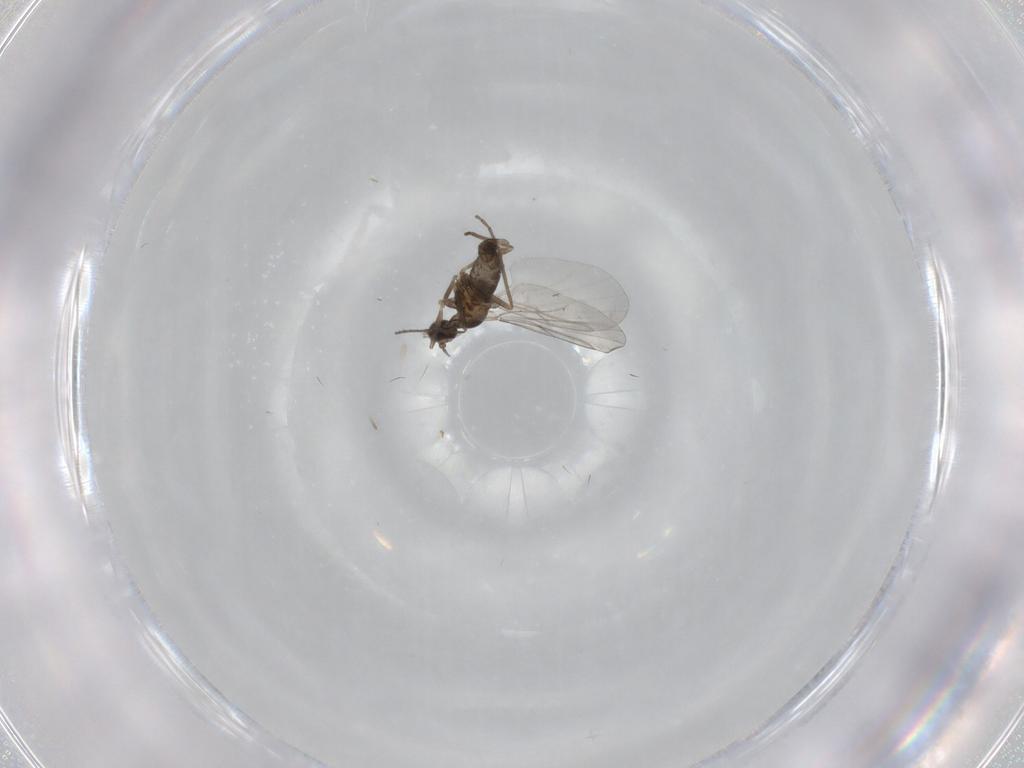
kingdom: Animalia
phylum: Arthropoda
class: Insecta
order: Diptera
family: Cecidomyiidae
